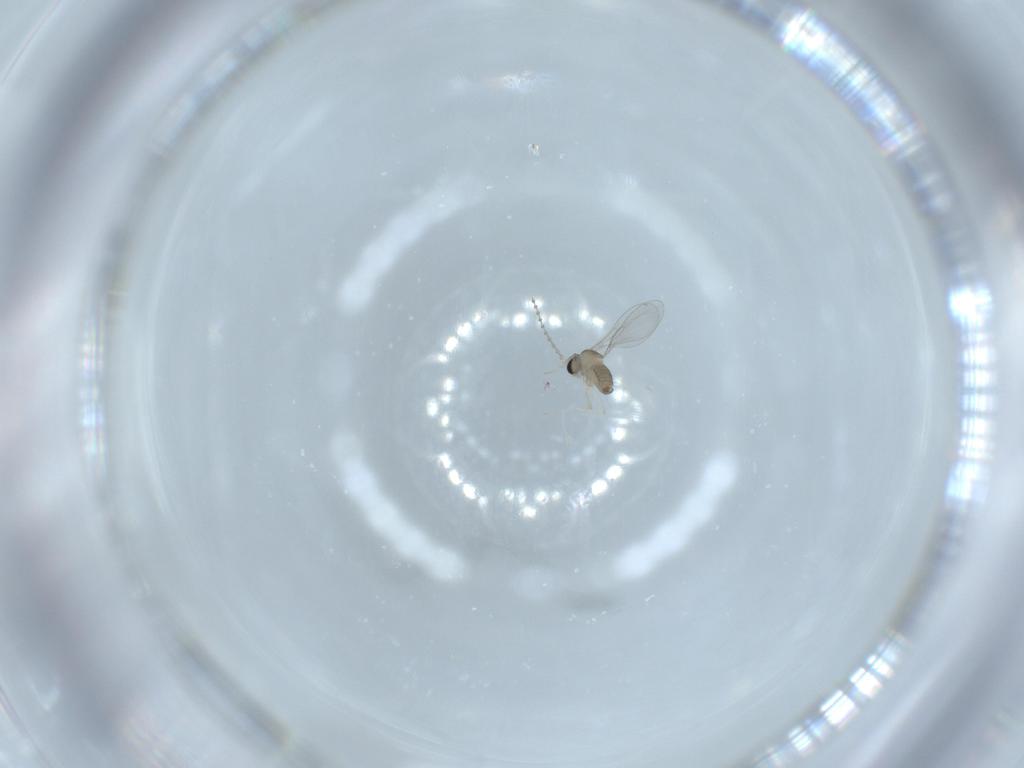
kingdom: Animalia
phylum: Arthropoda
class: Insecta
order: Diptera
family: Cecidomyiidae
